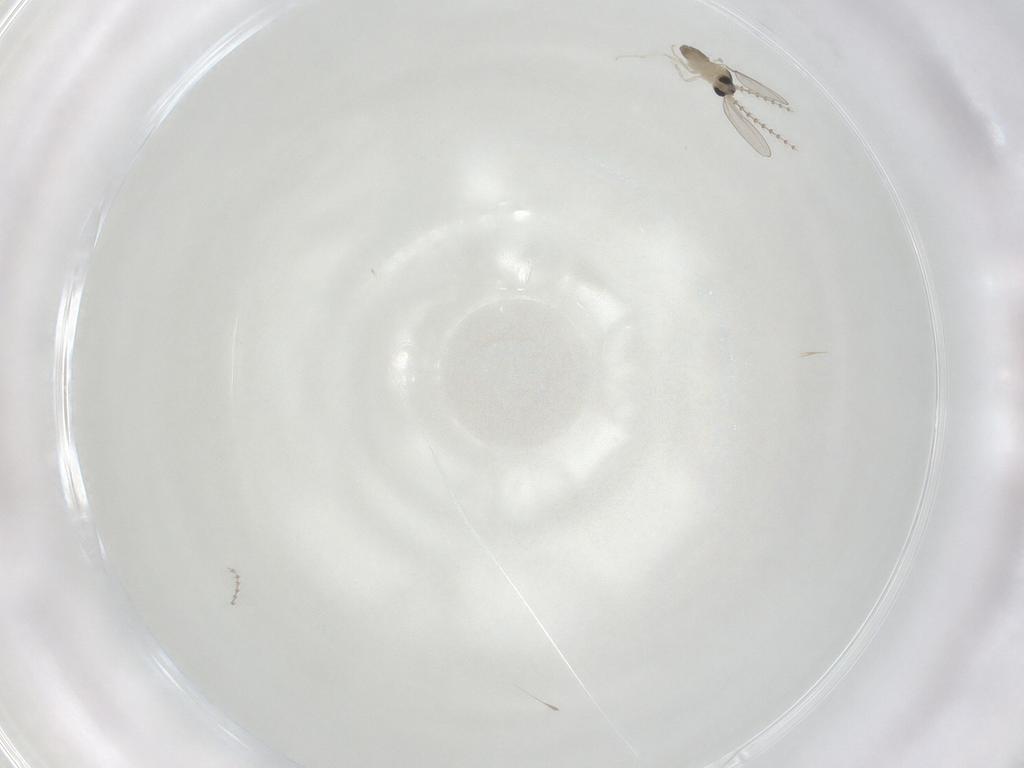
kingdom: Animalia
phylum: Arthropoda
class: Insecta
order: Diptera
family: Cecidomyiidae
